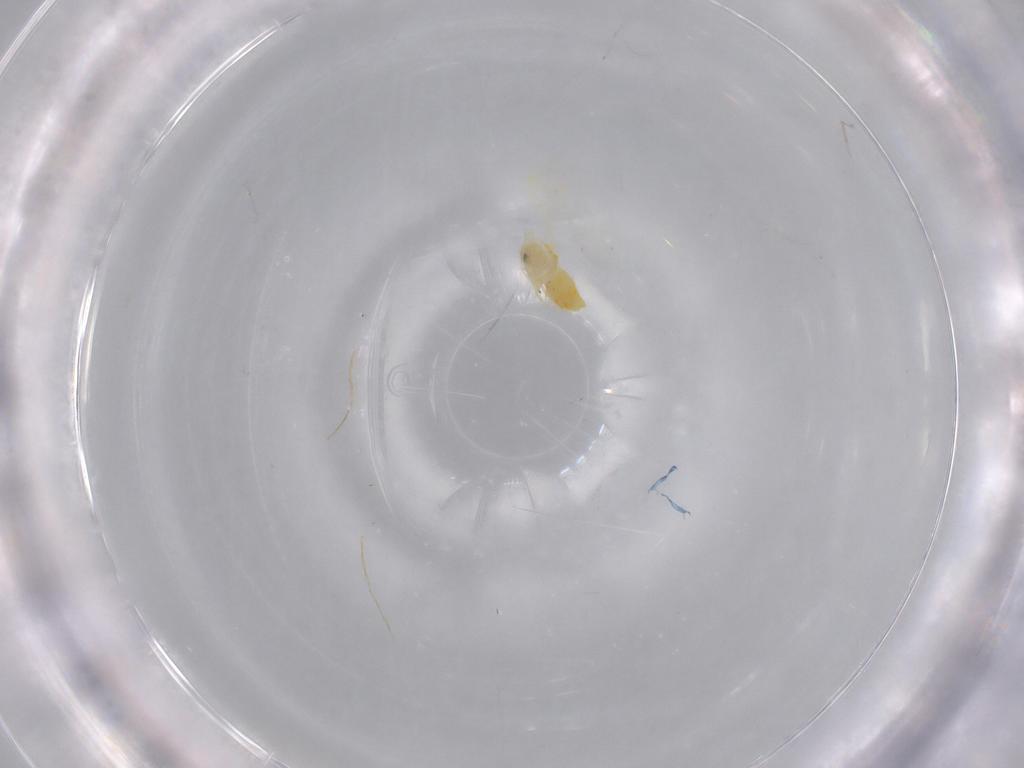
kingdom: Animalia
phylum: Arthropoda
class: Insecta
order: Hemiptera
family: Aleyrodidae
